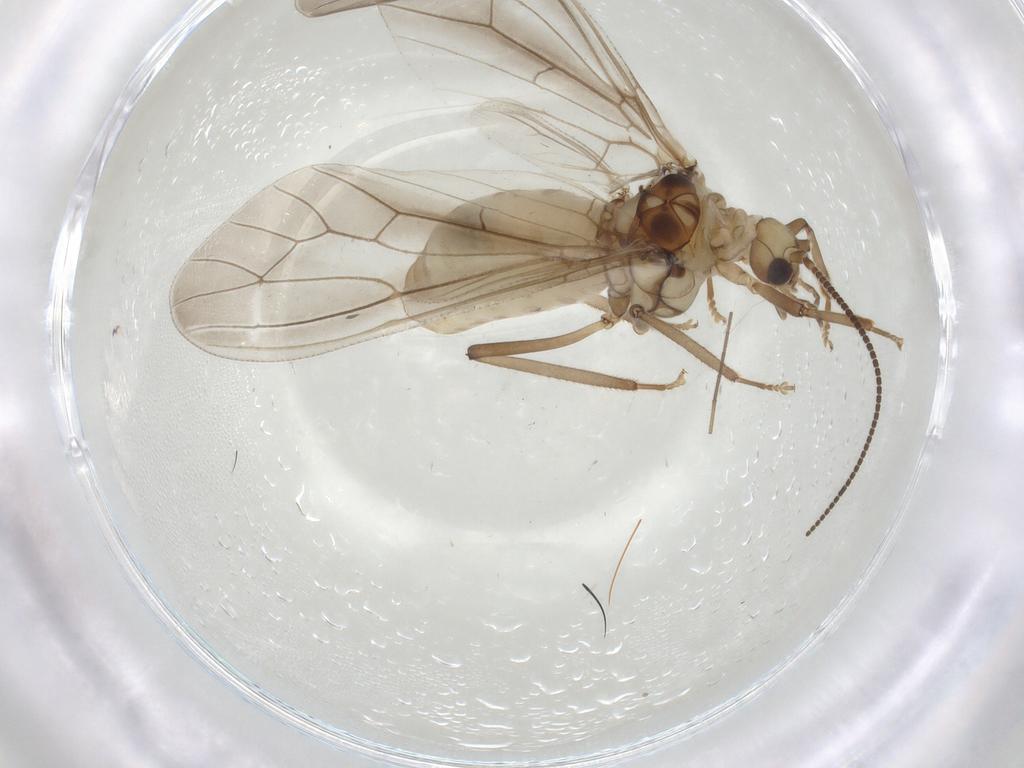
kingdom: Animalia
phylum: Arthropoda
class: Insecta
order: Neuroptera
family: Coniopterygidae
